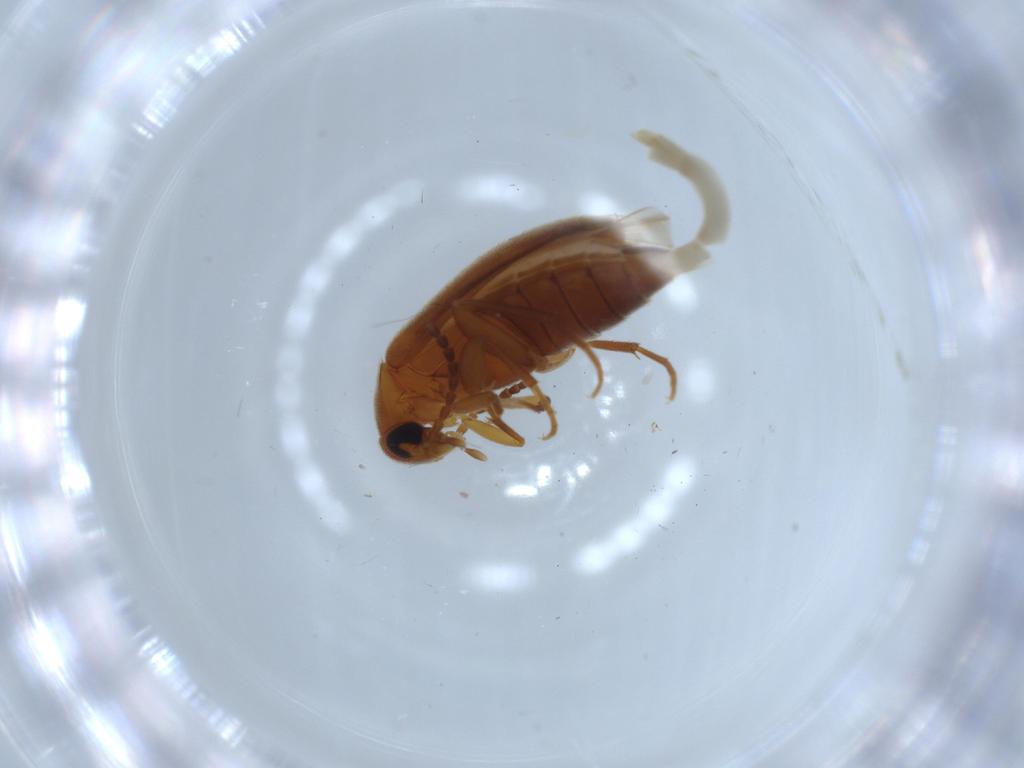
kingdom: Animalia
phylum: Arthropoda
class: Insecta
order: Coleoptera
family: Scraptiidae
